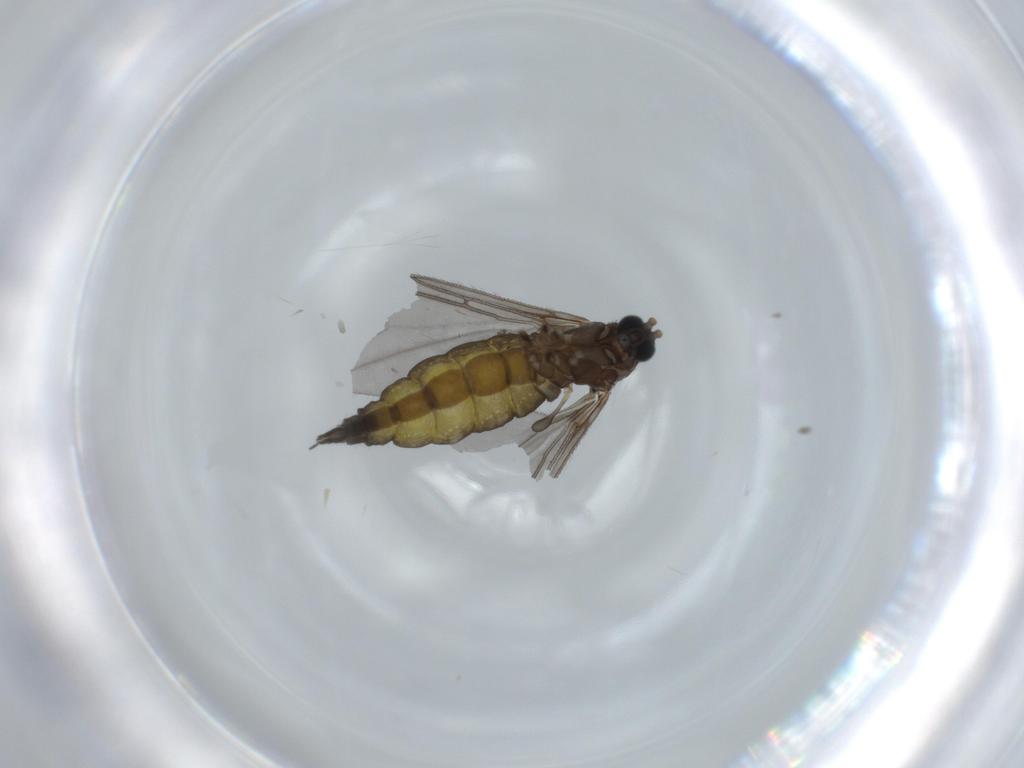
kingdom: Animalia
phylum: Arthropoda
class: Insecta
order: Diptera
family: Sciaridae
